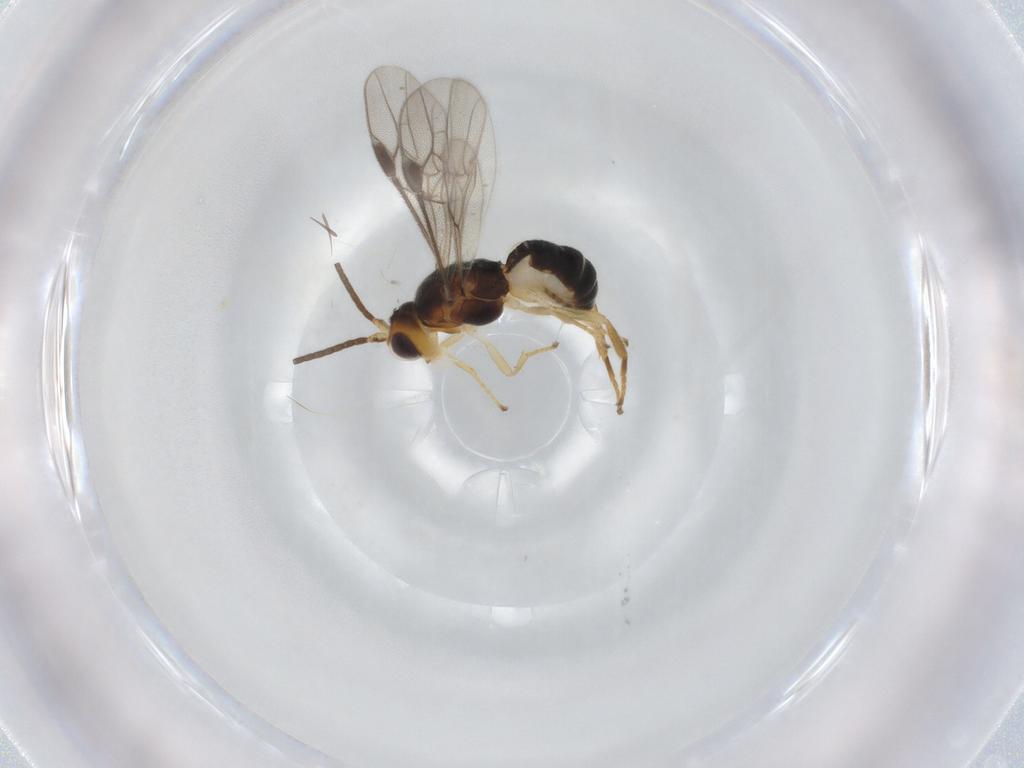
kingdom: Animalia
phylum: Arthropoda
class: Insecta
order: Hymenoptera
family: Braconidae
